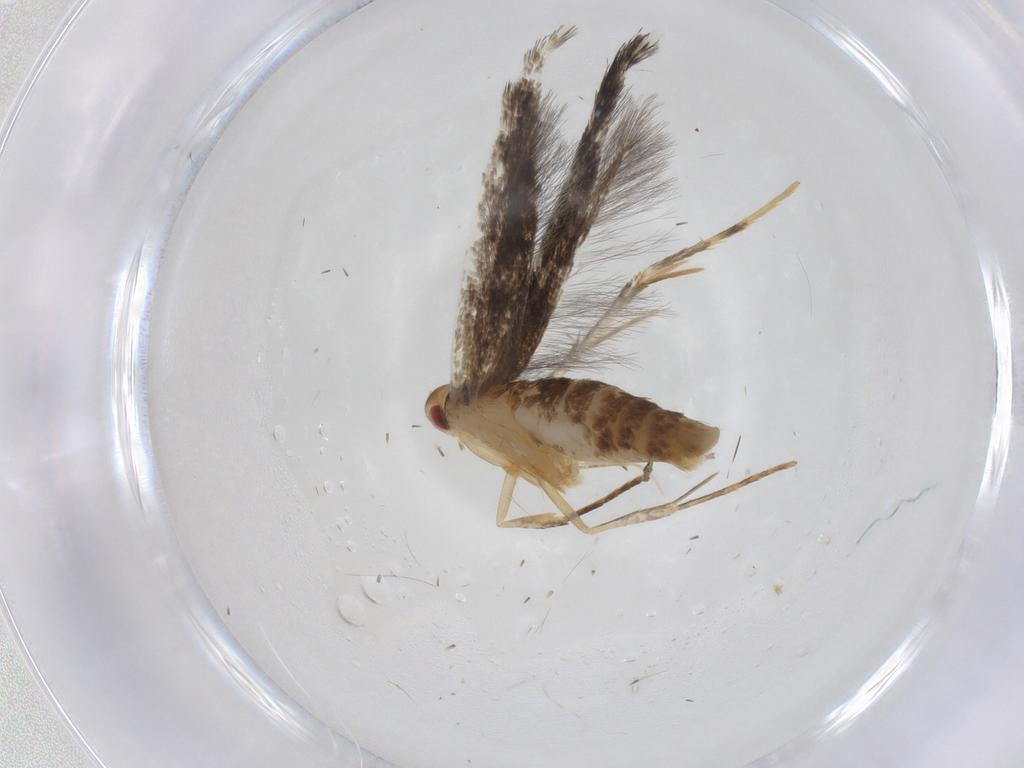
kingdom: Animalia
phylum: Arthropoda
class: Insecta
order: Lepidoptera
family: Cosmopterigidae
